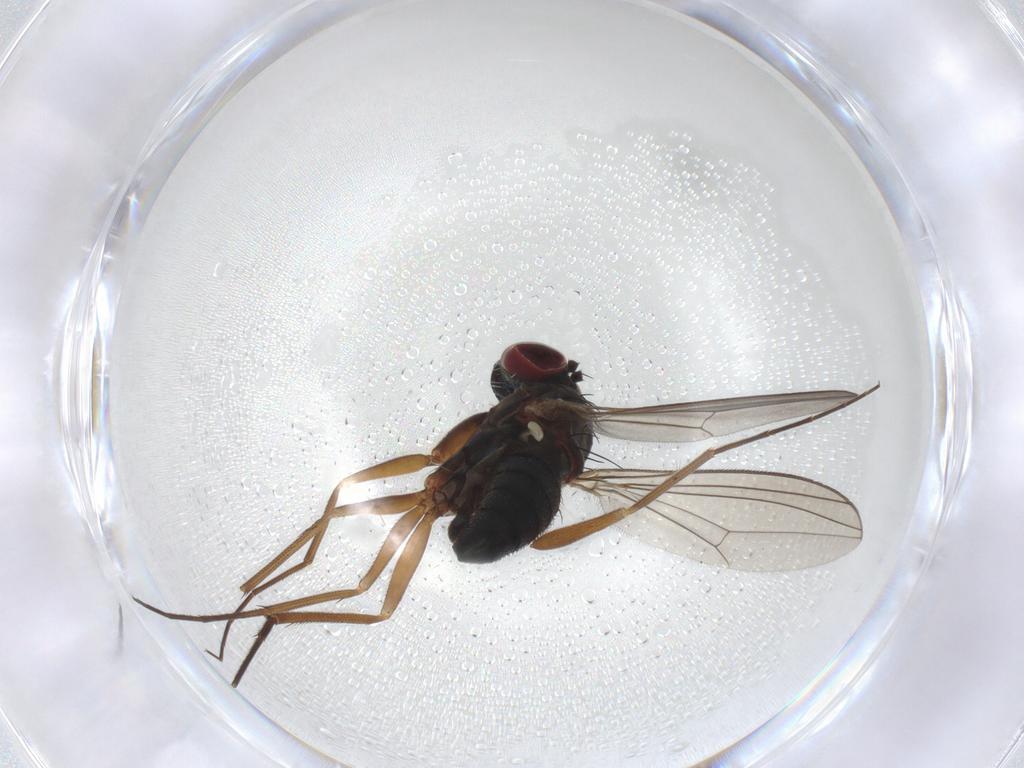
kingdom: Animalia
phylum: Arthropoda
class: Insecta
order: Diptera
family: Dolichopodidae
